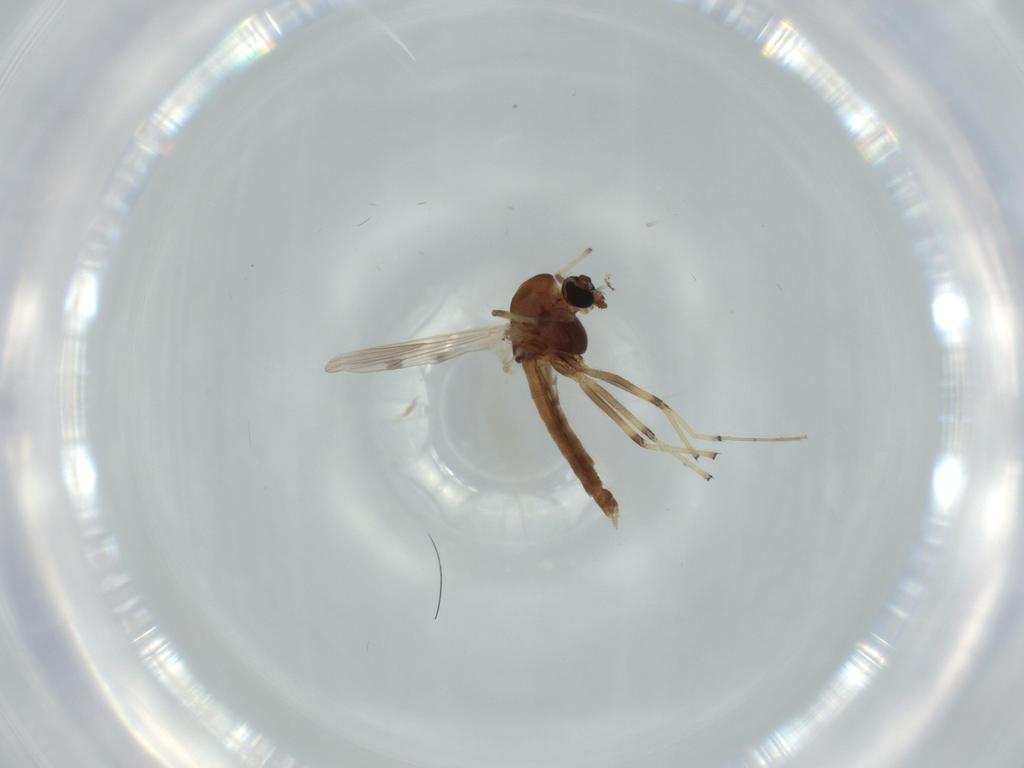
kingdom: Animalia
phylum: Arthropoda
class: Insecta
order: Diptera
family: Chironomidae
